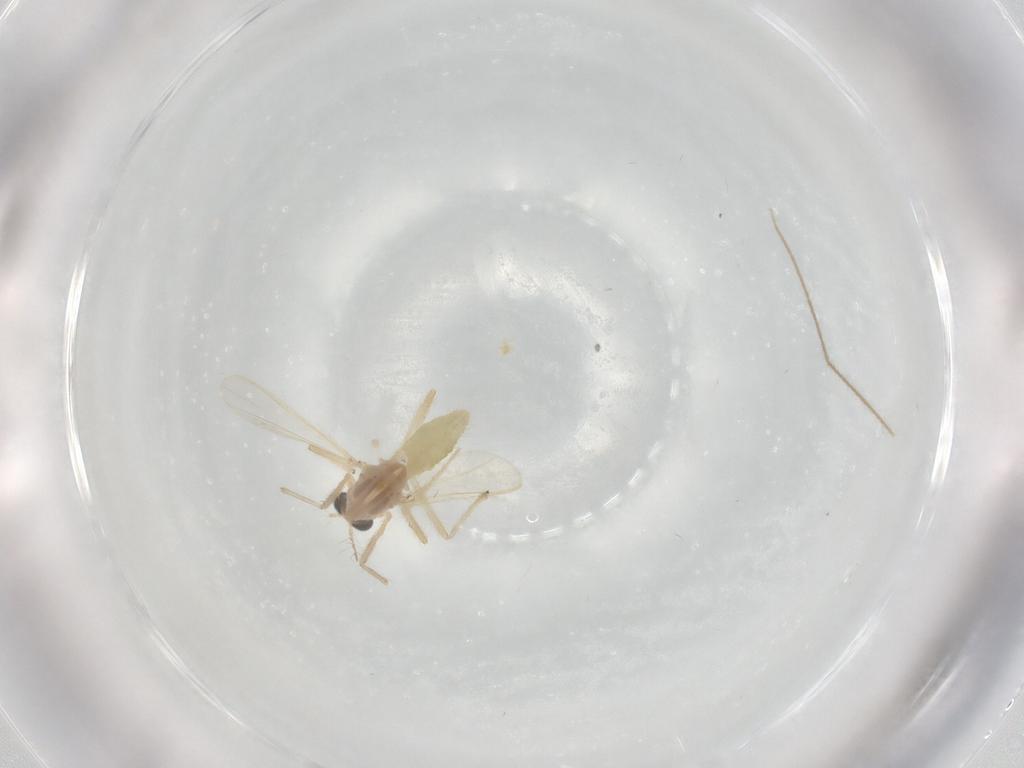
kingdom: Animalia
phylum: Arthropoda
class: Insecta
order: Diptera
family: Chironomidae
